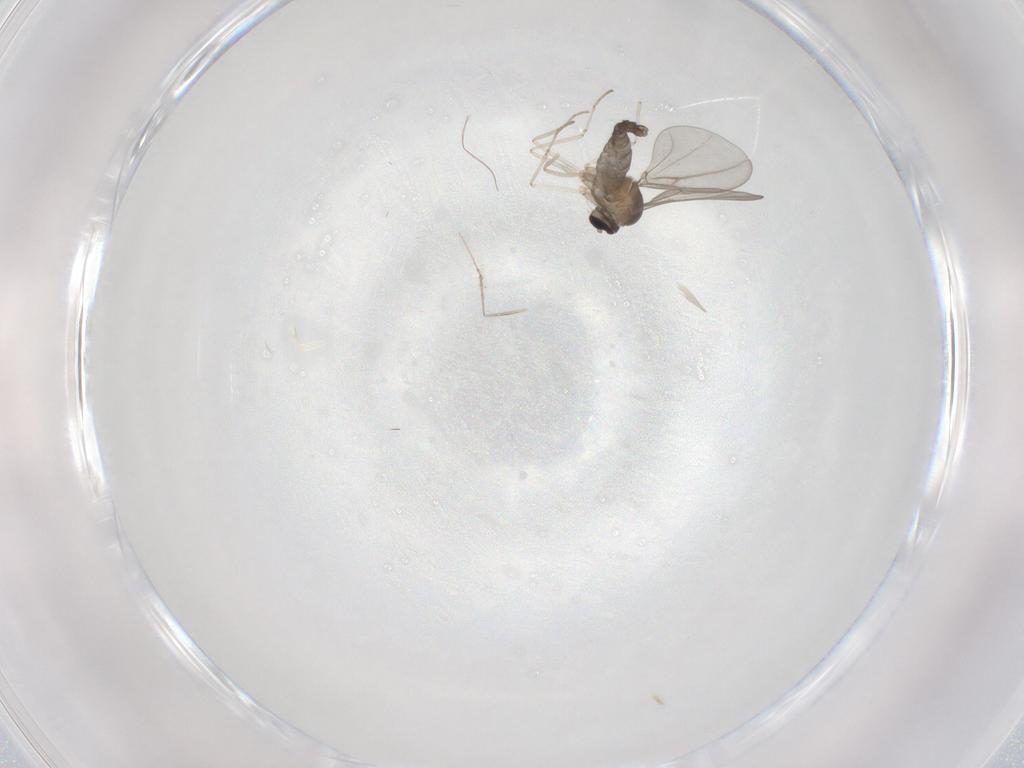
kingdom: Animalia
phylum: Arthropoda
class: Insecta
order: Diptera
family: Cecidomyiidae
